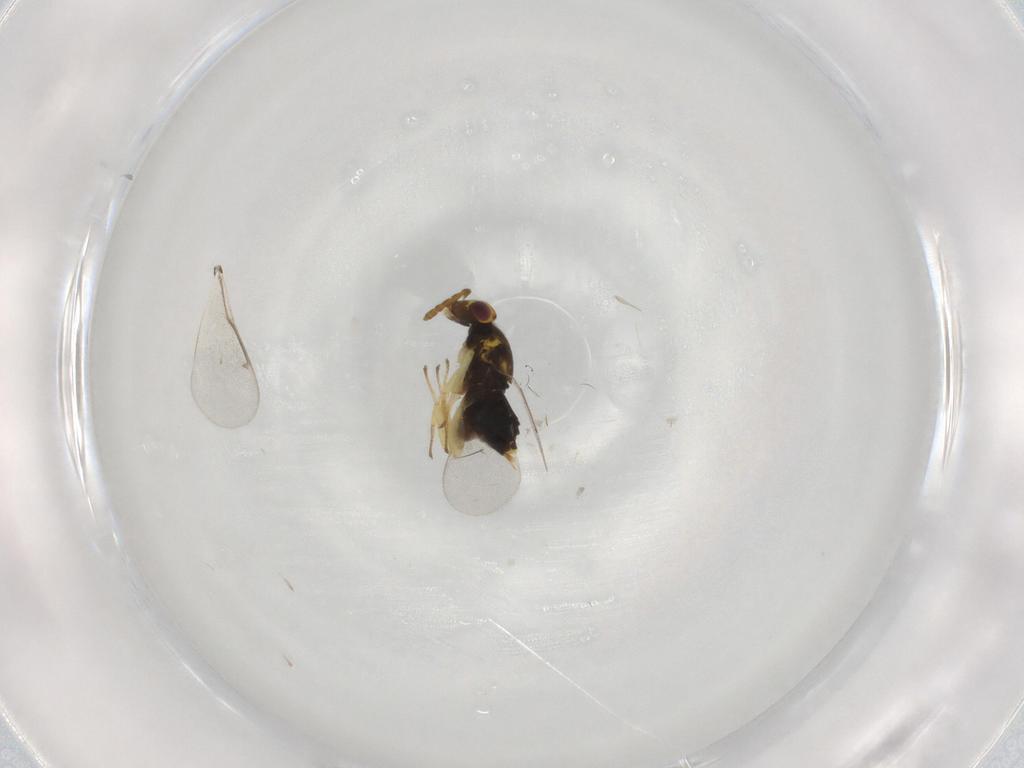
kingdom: Animalia
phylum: Arthropoda
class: Insecta
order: Hymenoptera
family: Aphelinidae
